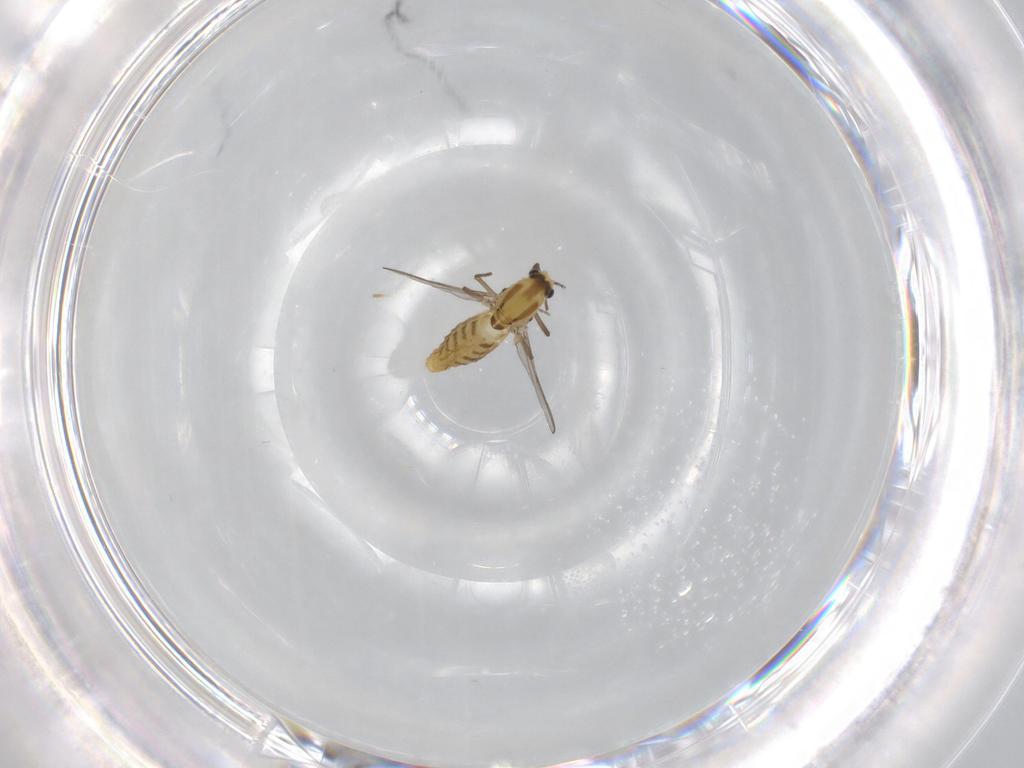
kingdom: Animalia
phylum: Arthropoda
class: Insecta
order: Diptera
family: Chironomidae
